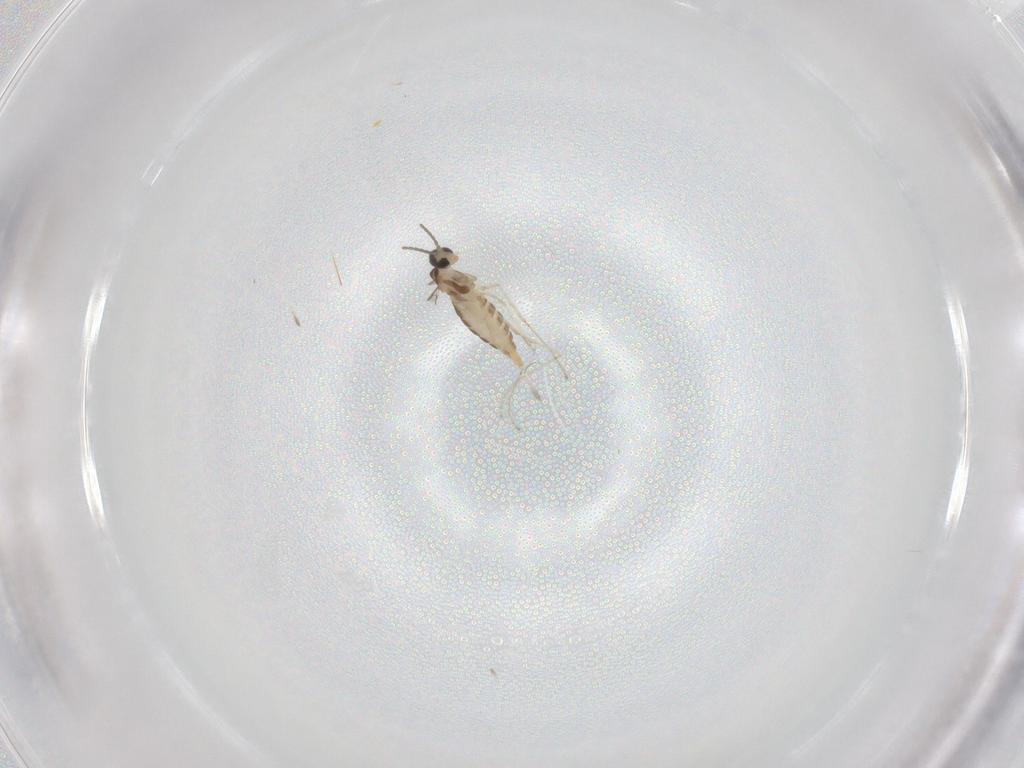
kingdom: Animalia
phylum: Arthropoda
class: Insecta
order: Diptera
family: Cecidomyiidae
